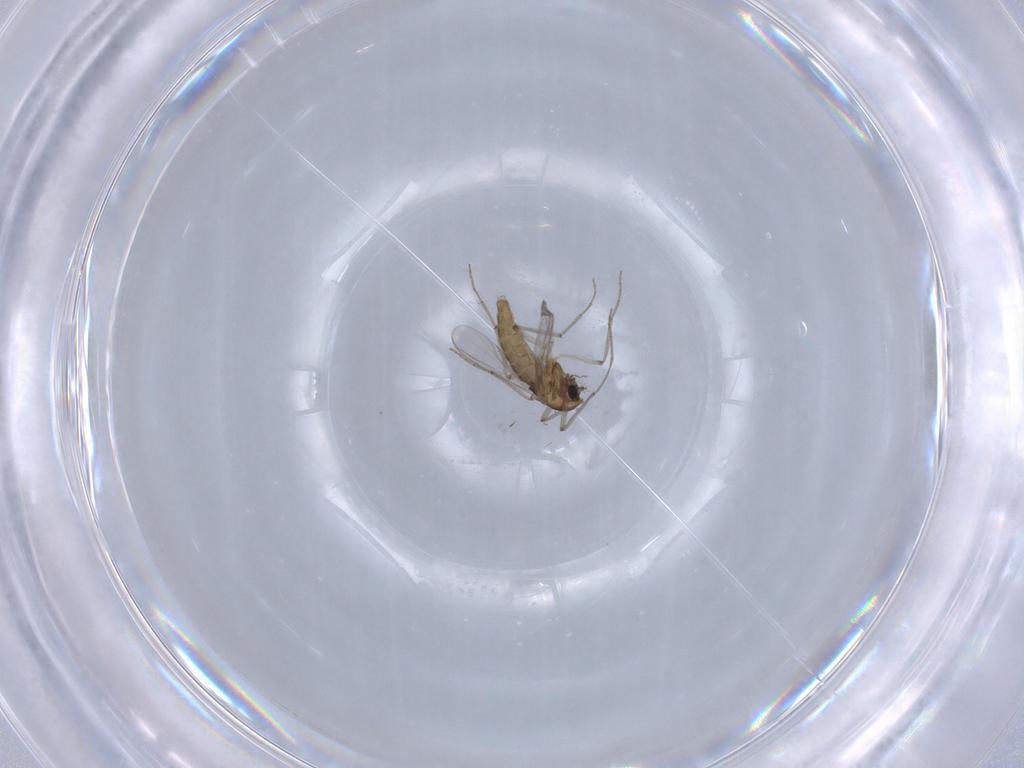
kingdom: Animalia
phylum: Arthropoda
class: Insecta
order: Diptera
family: Chironomidae
